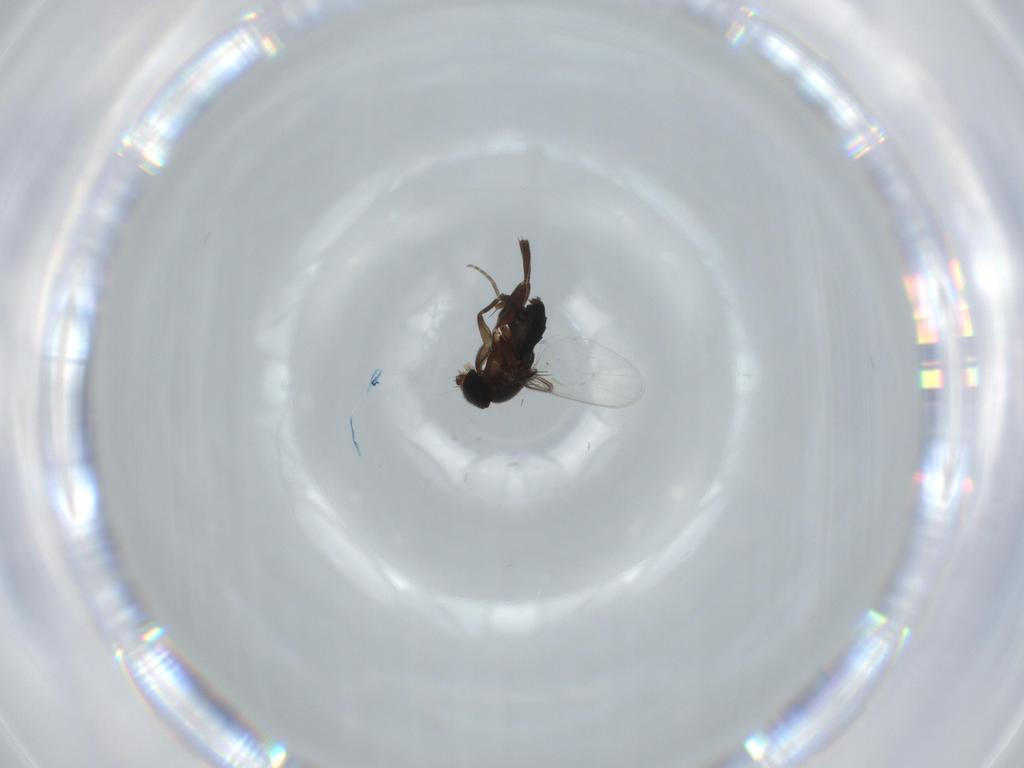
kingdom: Animalia
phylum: Arthropoda
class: Insecta
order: Diptera
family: Phoridae
